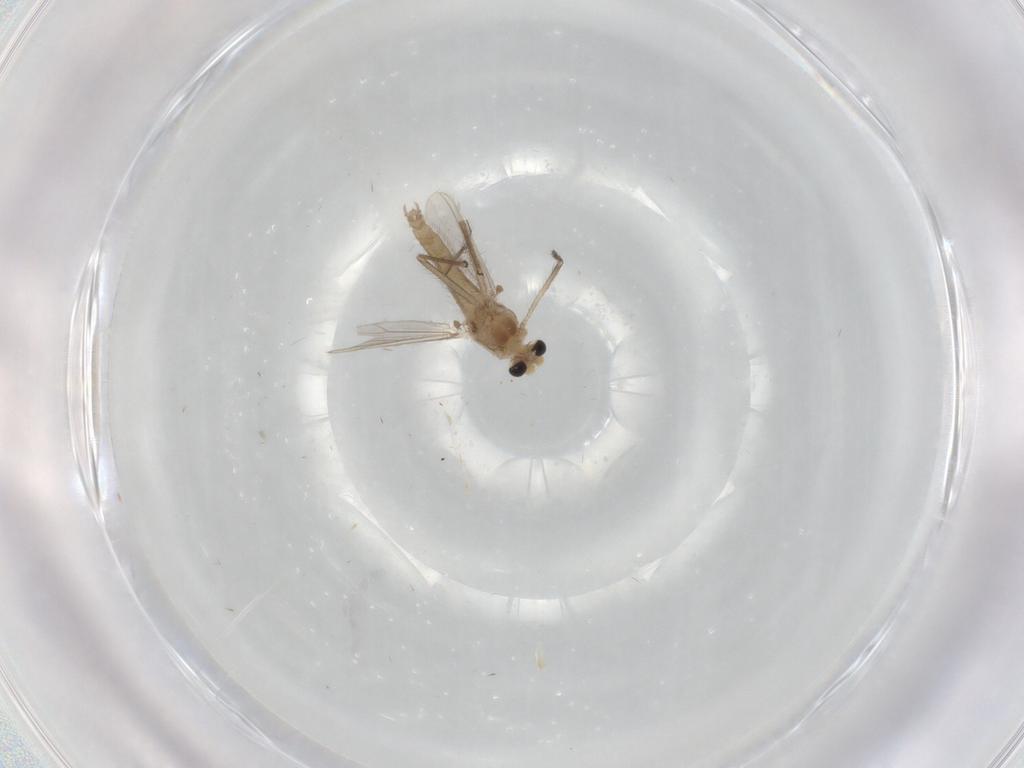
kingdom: Animalia
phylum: Arthropoda
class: Insecta
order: Diptera
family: Chironomidae
